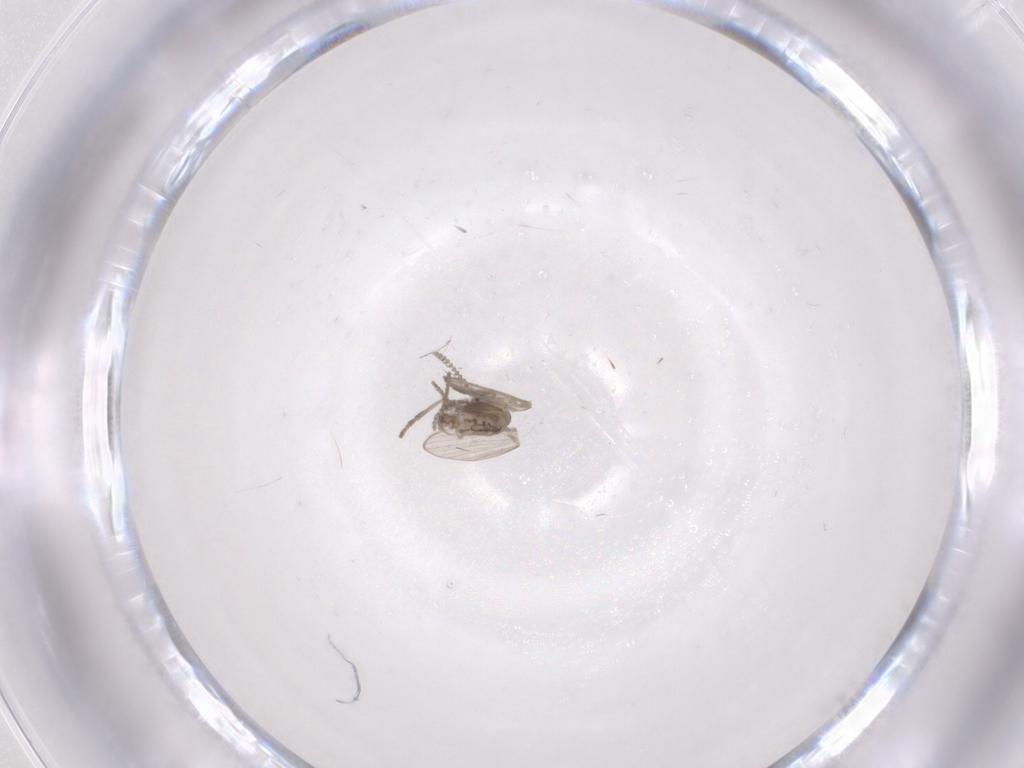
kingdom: Animalia
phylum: Arthropoda
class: Insecta
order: Diptera
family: Psychodidae
